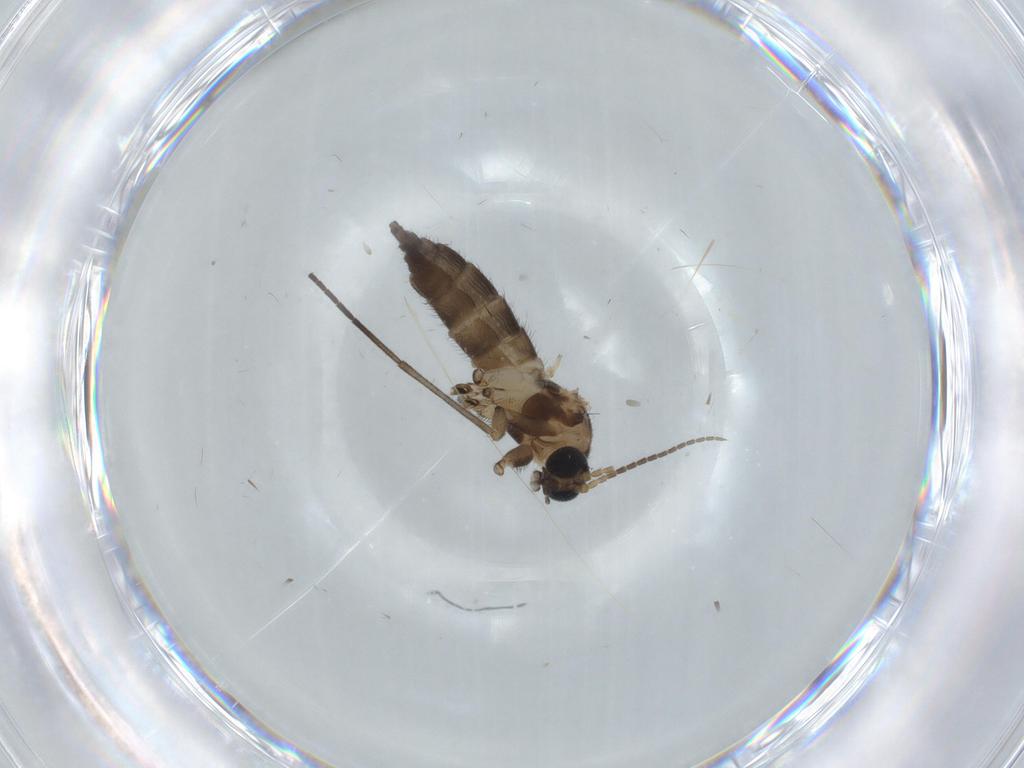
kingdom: Animalia
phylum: Arthropoda
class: Insecta
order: Diptera
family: Sciaridae
